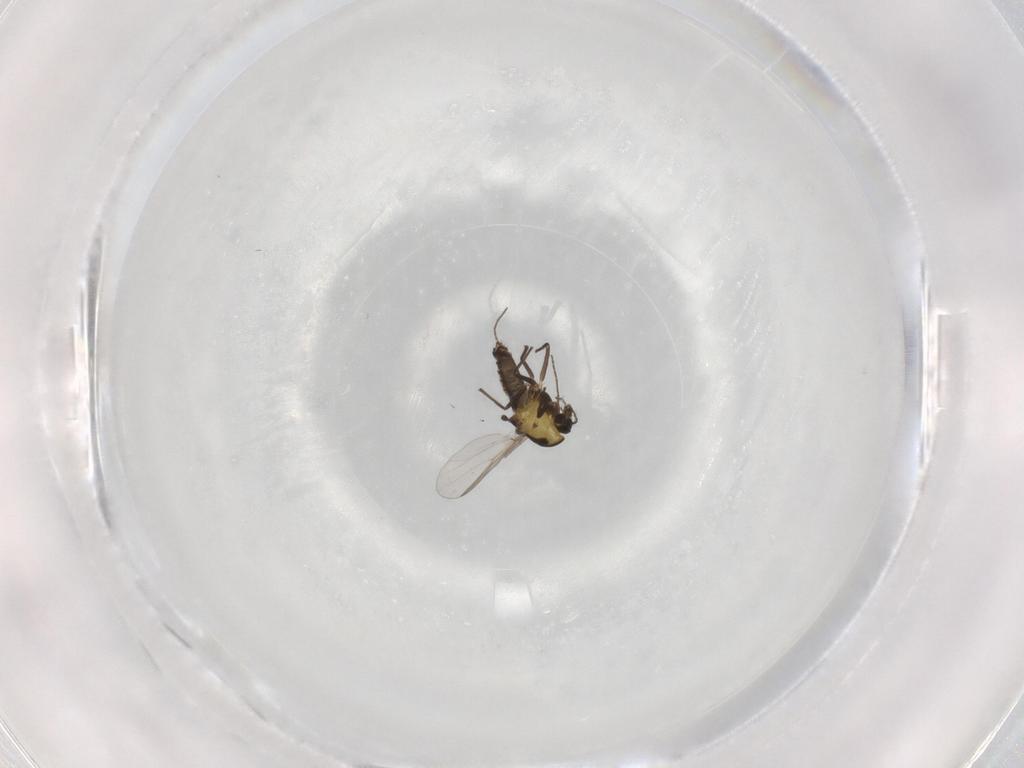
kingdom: Animalia
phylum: Arthropoda
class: Insecta
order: Diptera
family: Chironomidae
